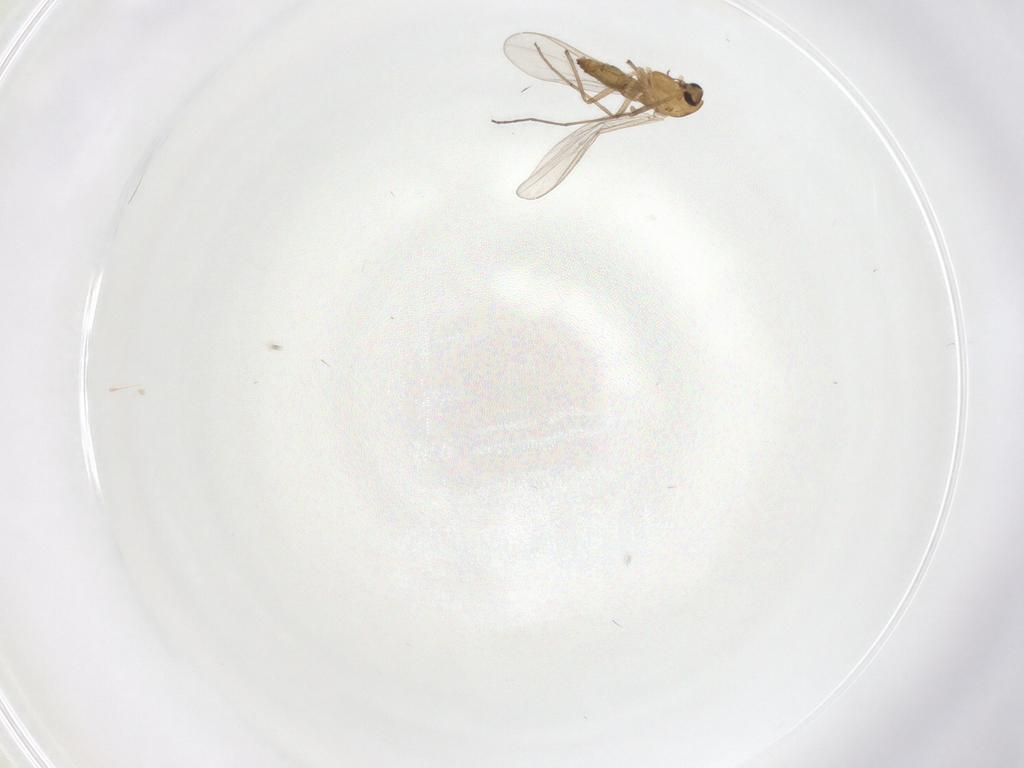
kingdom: Animalia
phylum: Arthropoda
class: Insecta
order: Diptera
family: Chironomidae
